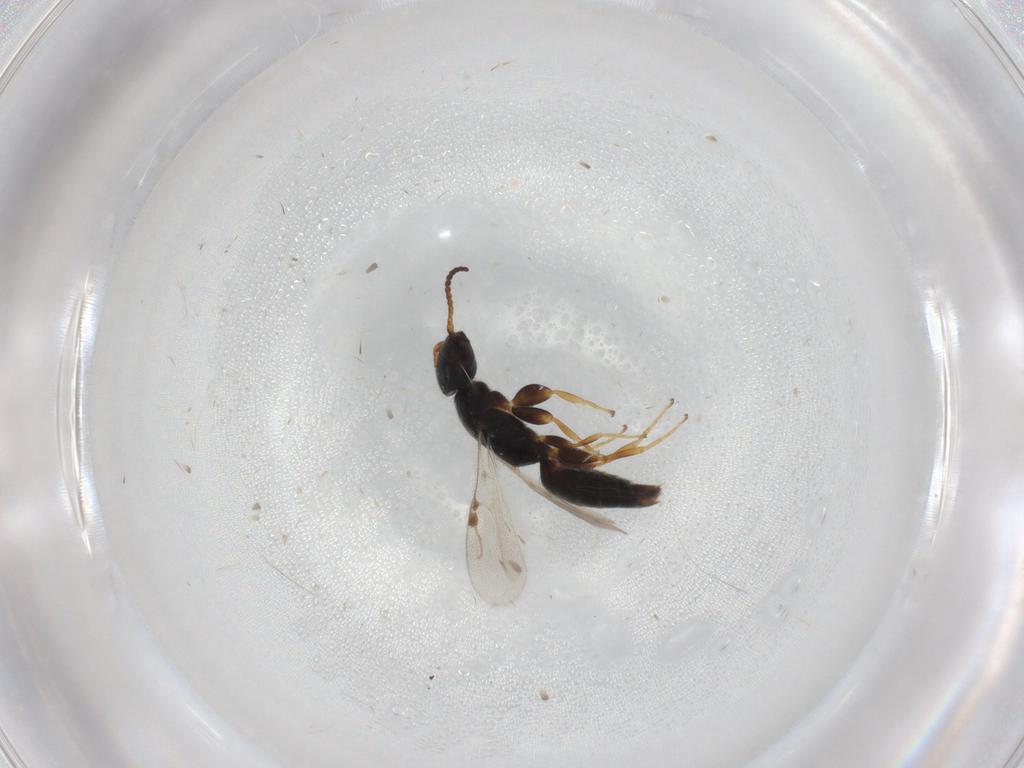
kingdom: Animalia
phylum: Arthropoda
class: Insecta
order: Hymenoptera
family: Bethylidae
